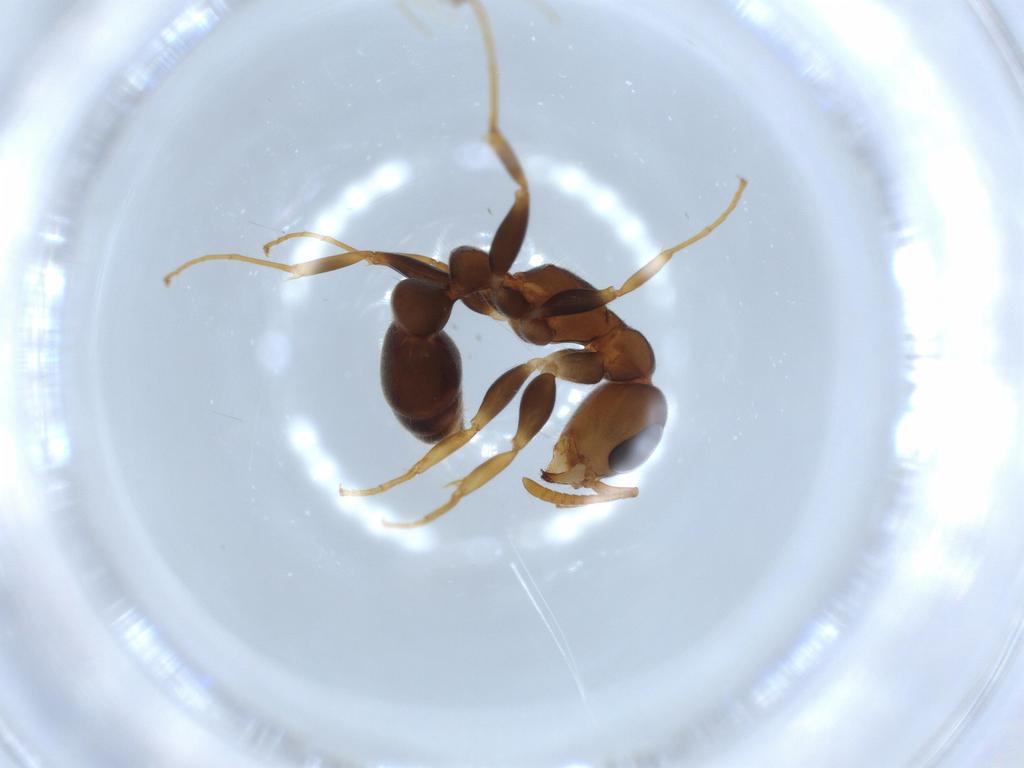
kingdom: Animalia
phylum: Arthropoda
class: Insecta
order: Hymenoptera
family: Formicidae
